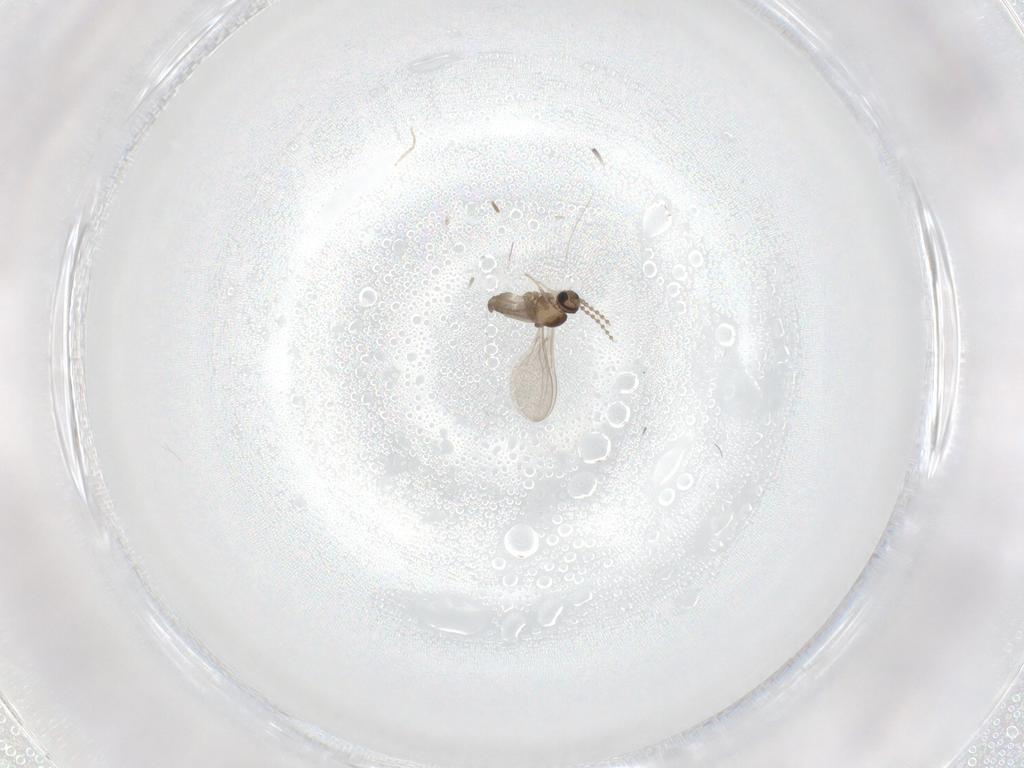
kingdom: Animalia
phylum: Arthropoda
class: Insecta
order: Diptera
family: Cecidomyiidae
